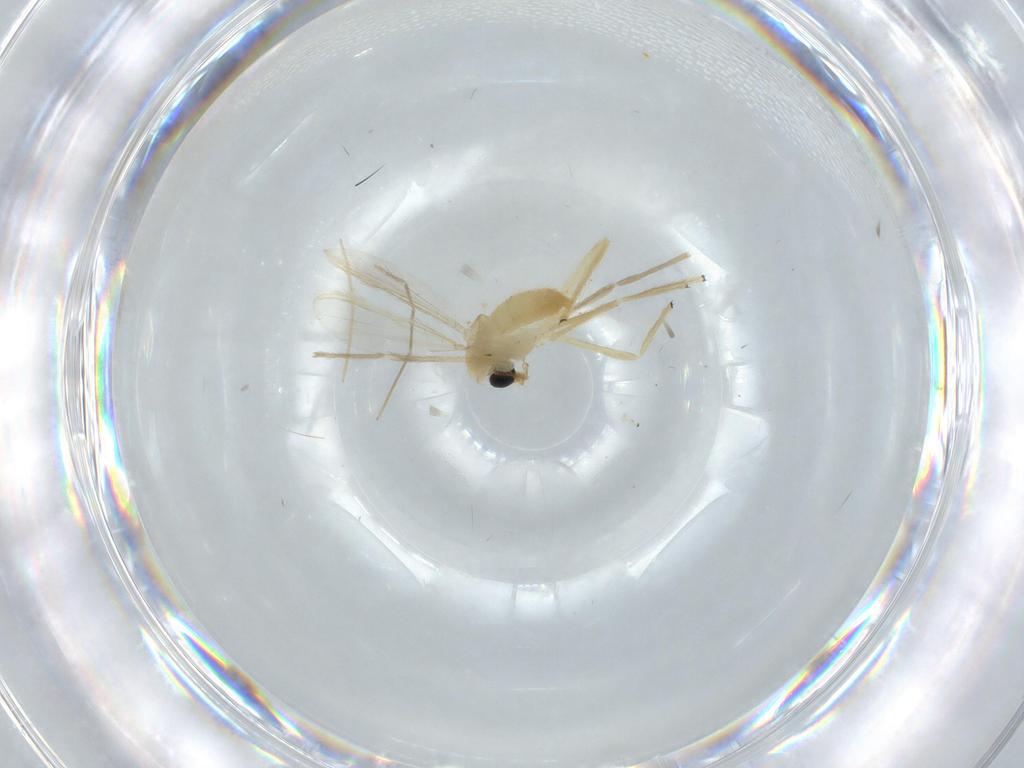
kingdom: Animalia
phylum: Arthropoda
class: Insecta
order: Diptera
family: Chironomidae
